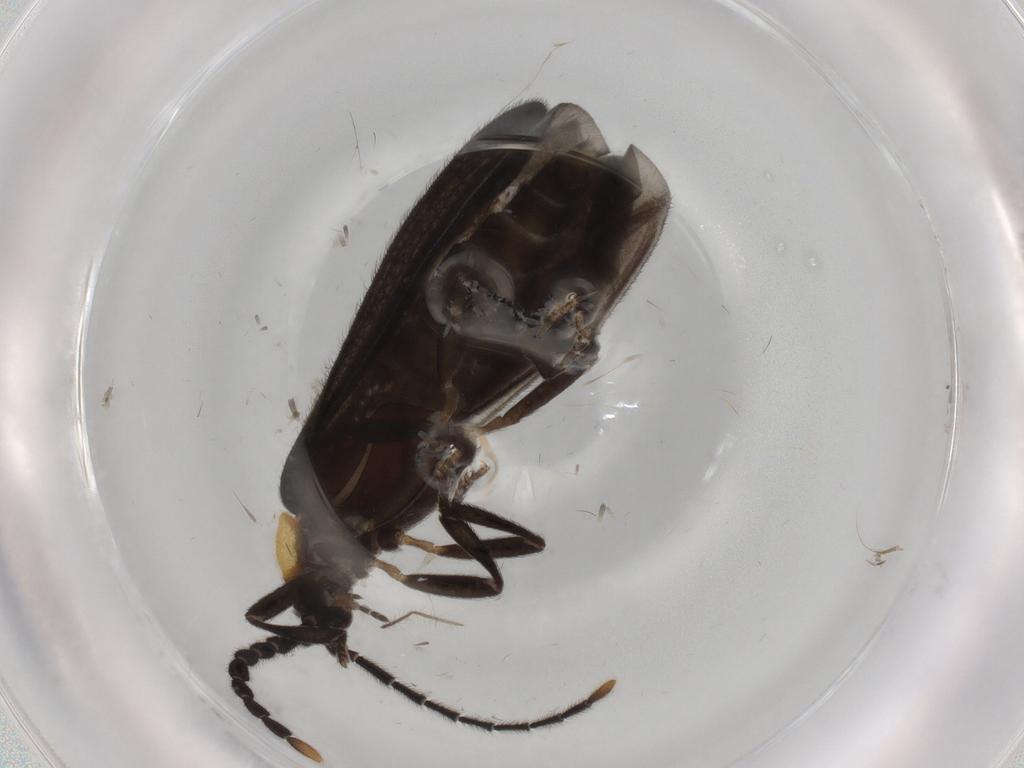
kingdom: Animalia
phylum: Arthropoda
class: Insecta
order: Coleoptera
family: Lycidae
